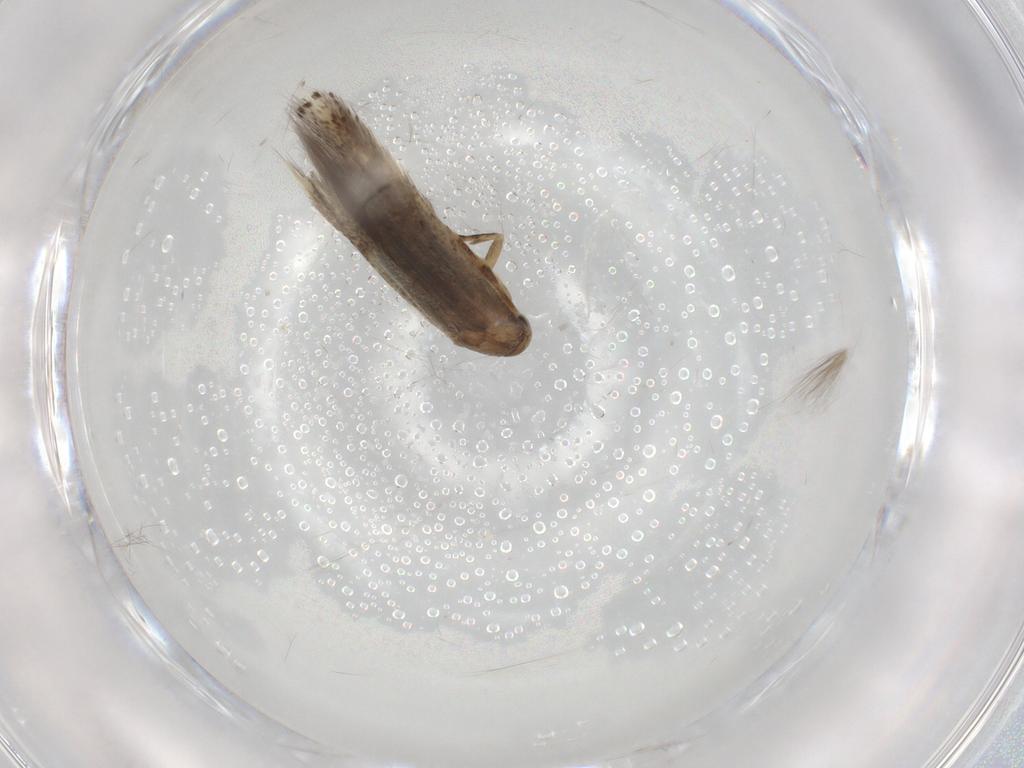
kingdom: Animalia
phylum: Arthropoda
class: Insecta
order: Lepidoptera
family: Elachistidae
